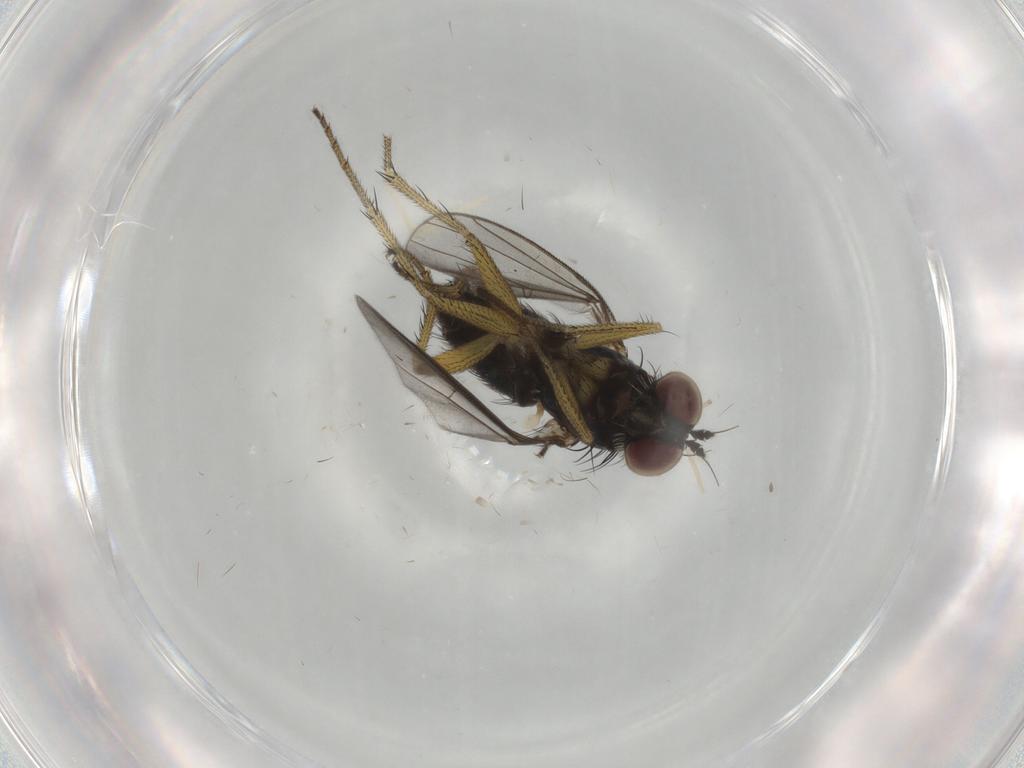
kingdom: Animalia
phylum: Arthropoda
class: Insecta
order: Diptera
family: Dolichopodidae
